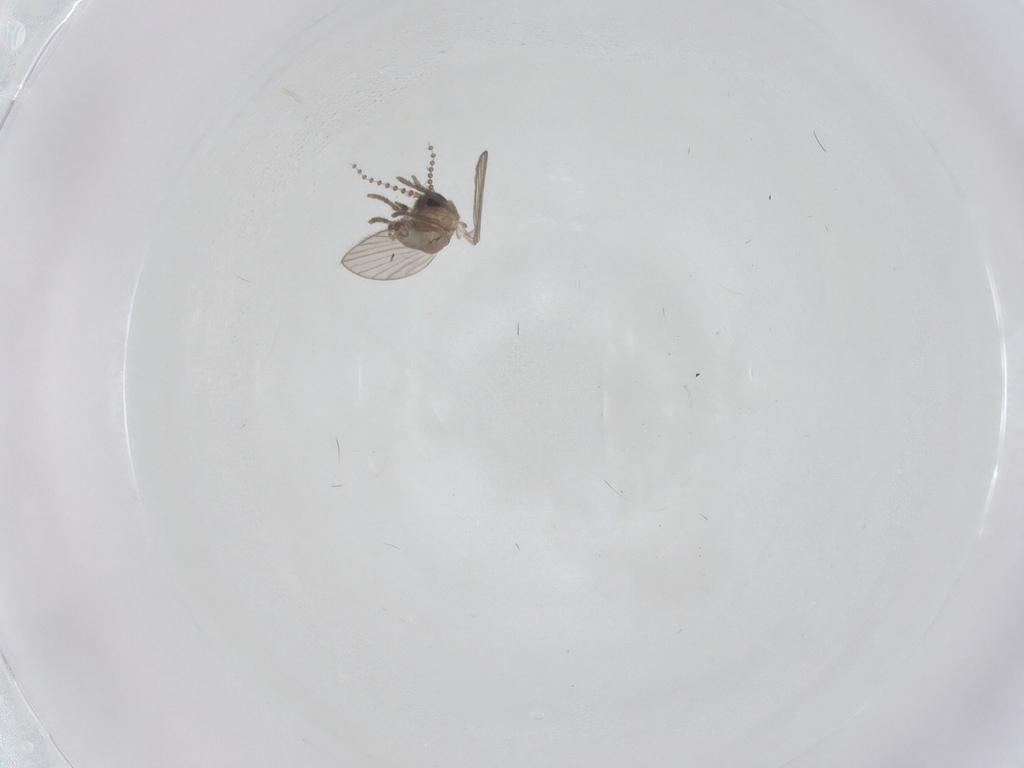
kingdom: Animalia
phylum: Arthropoda
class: Insecta
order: Diptera
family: Psychodidae
